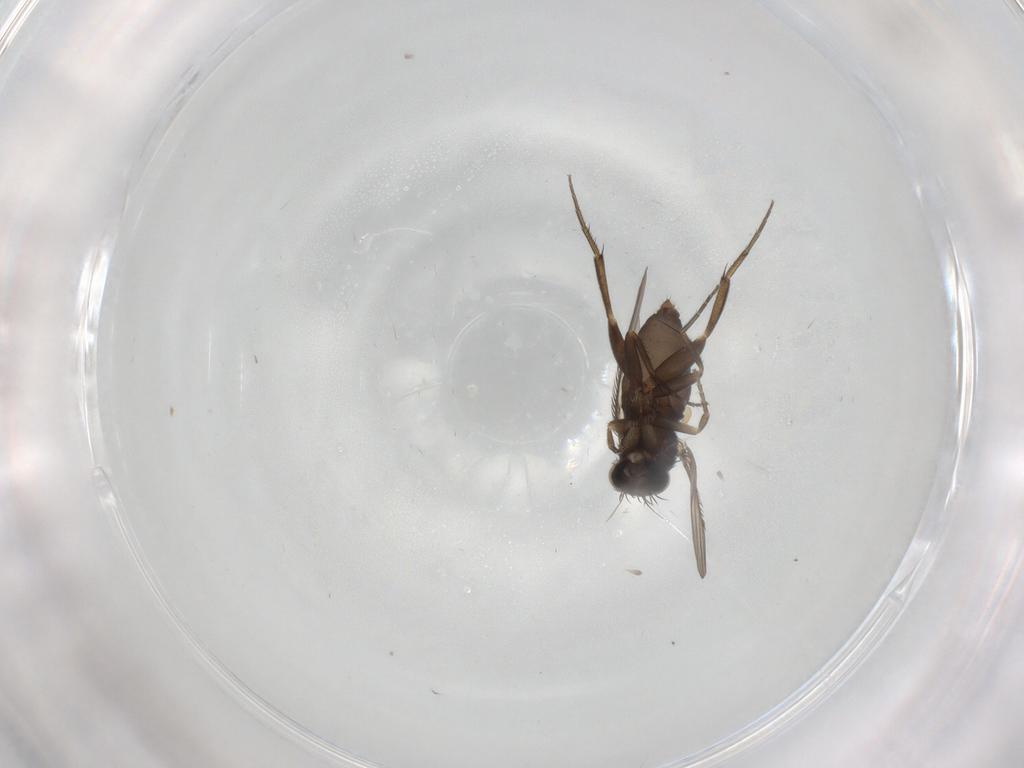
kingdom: Animalia
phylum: Arthropoda
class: Insecta
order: Diptera
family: Phoridae
